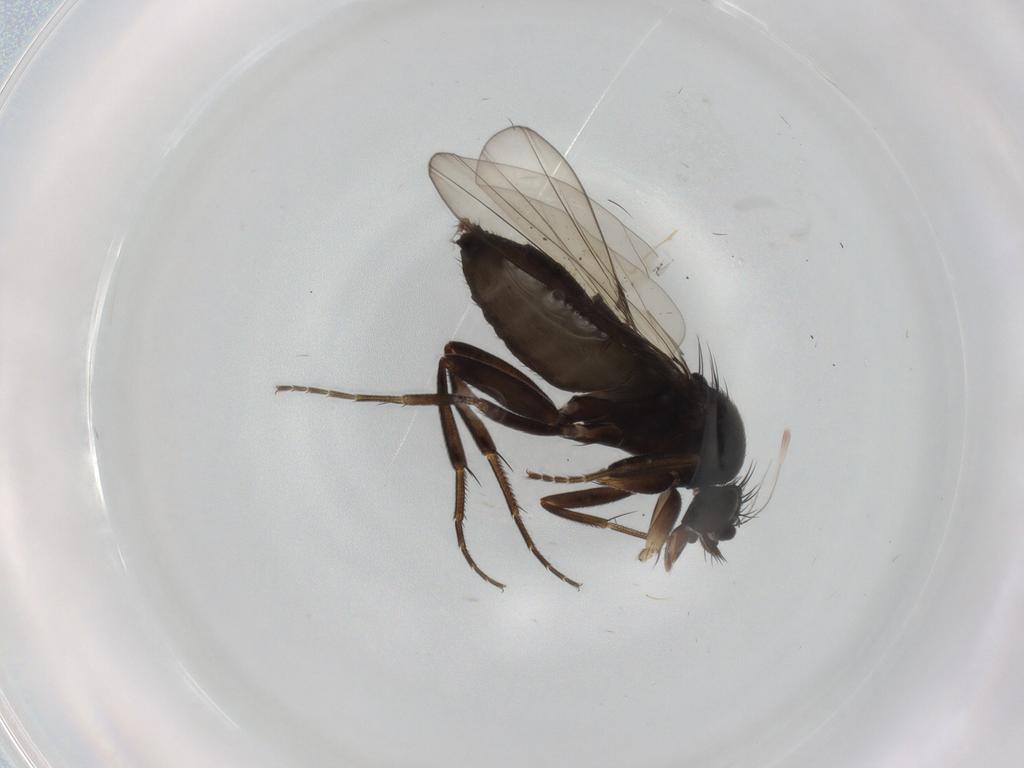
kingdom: Animalia
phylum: Arthropoda
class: Insecta
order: Diptera
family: Phoridae
